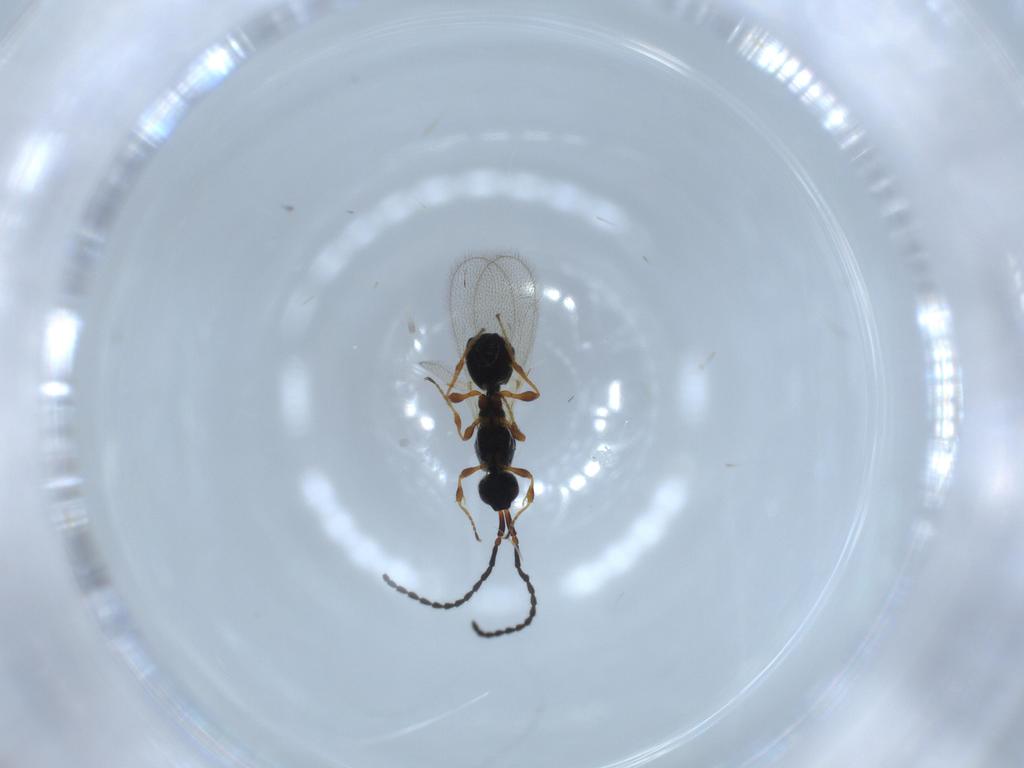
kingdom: Animalia
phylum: Arthropoda
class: Insecta
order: Hymenoptera
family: Diapriidae
